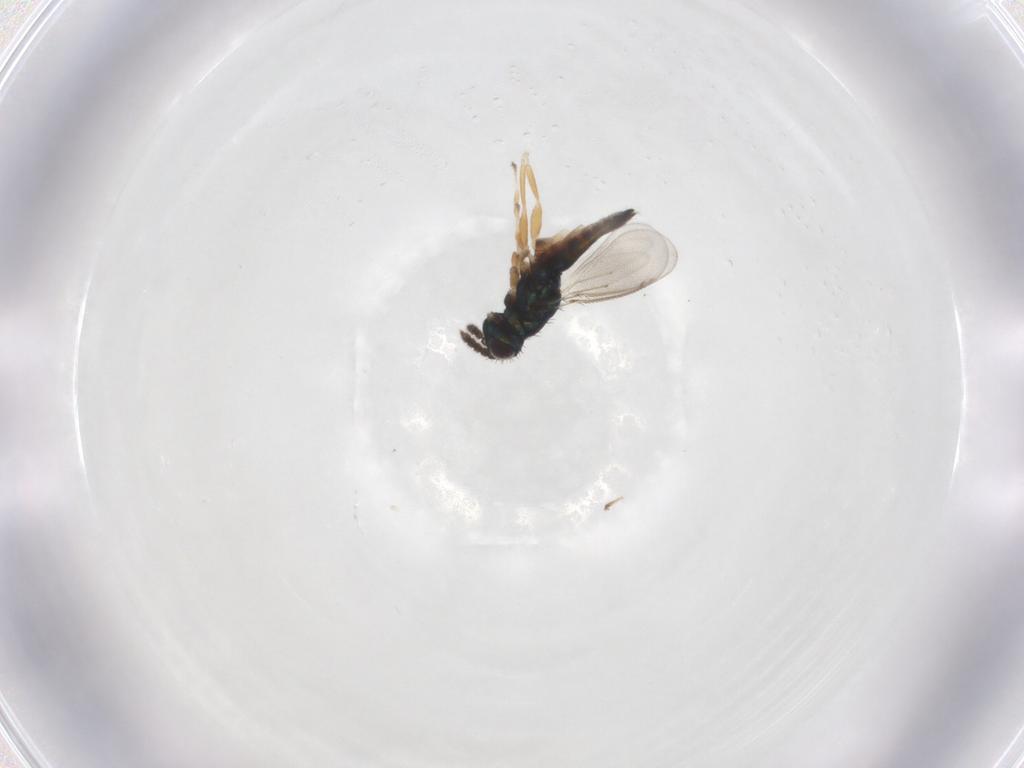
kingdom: Animalia
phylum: Arthropoda
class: Insecta
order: Hymenoptera
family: Eulophidae
